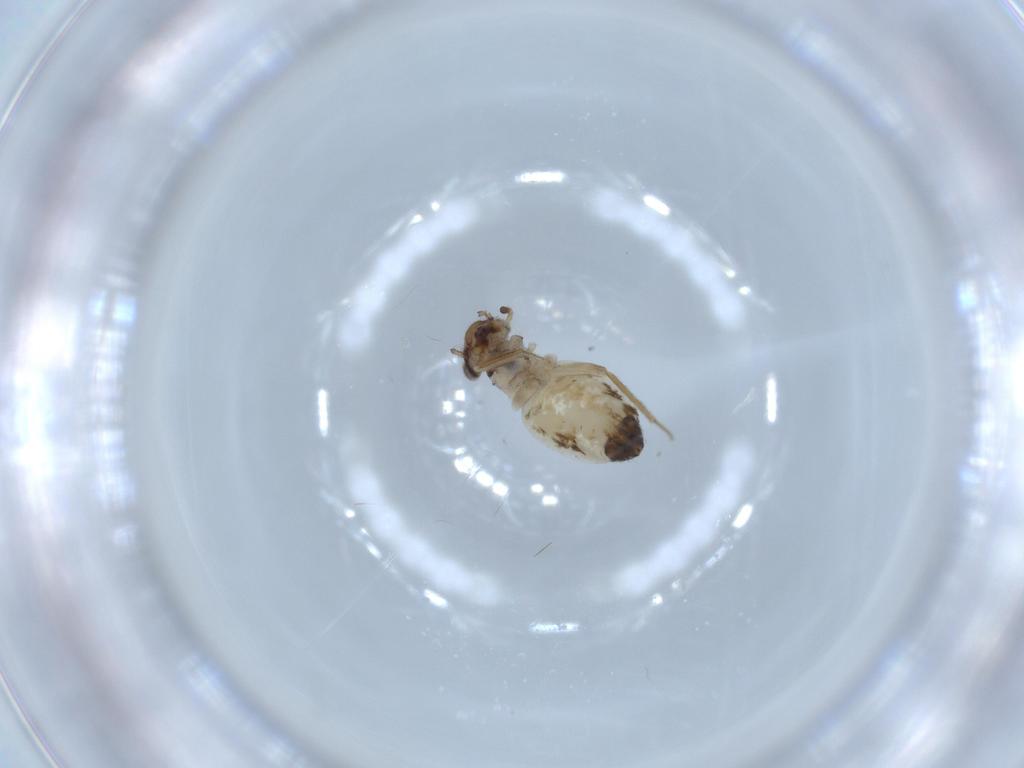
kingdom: Animalia
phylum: Arthropoda
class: Insecta
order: Psocodea
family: Lepidopsocidae
